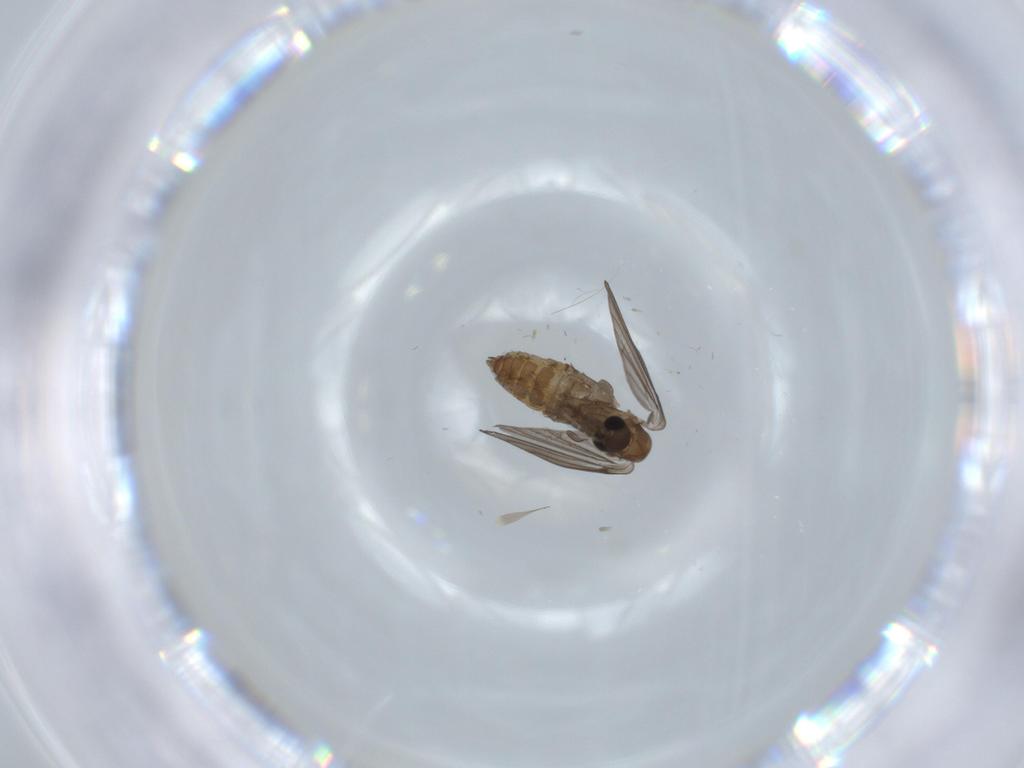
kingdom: Animalia
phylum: Arthropoda
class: Insecta
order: Diptera
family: Psychodidae
